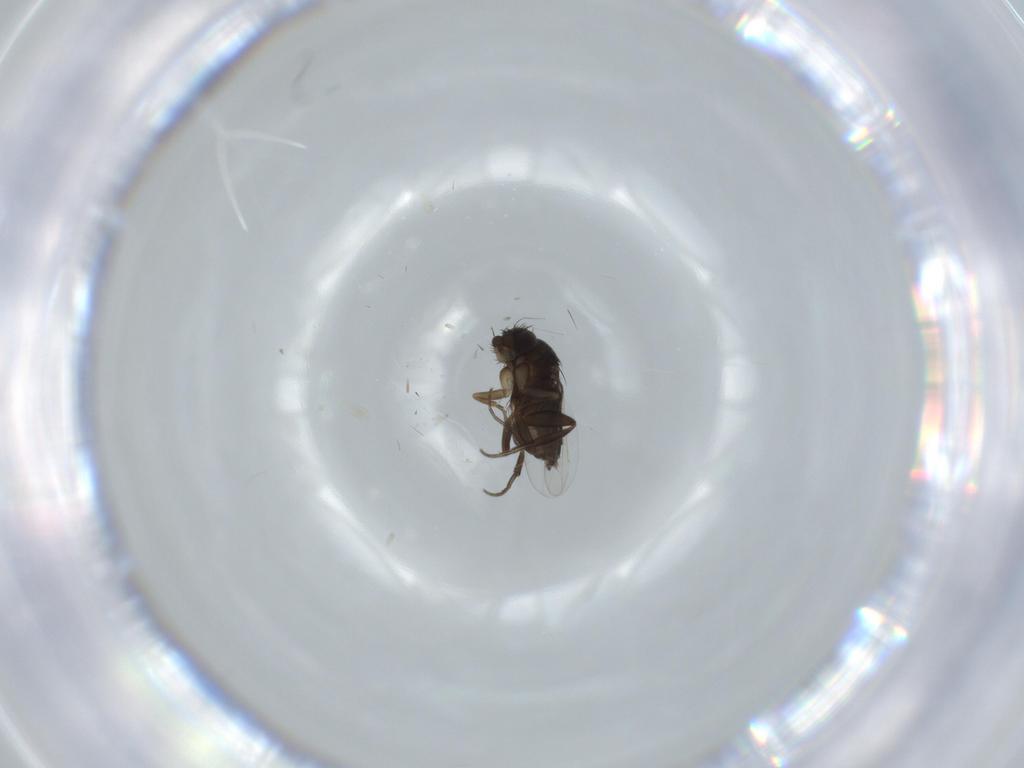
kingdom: Animalia
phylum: Arthropoda
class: Insecta
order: Diptera
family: Phoridae
